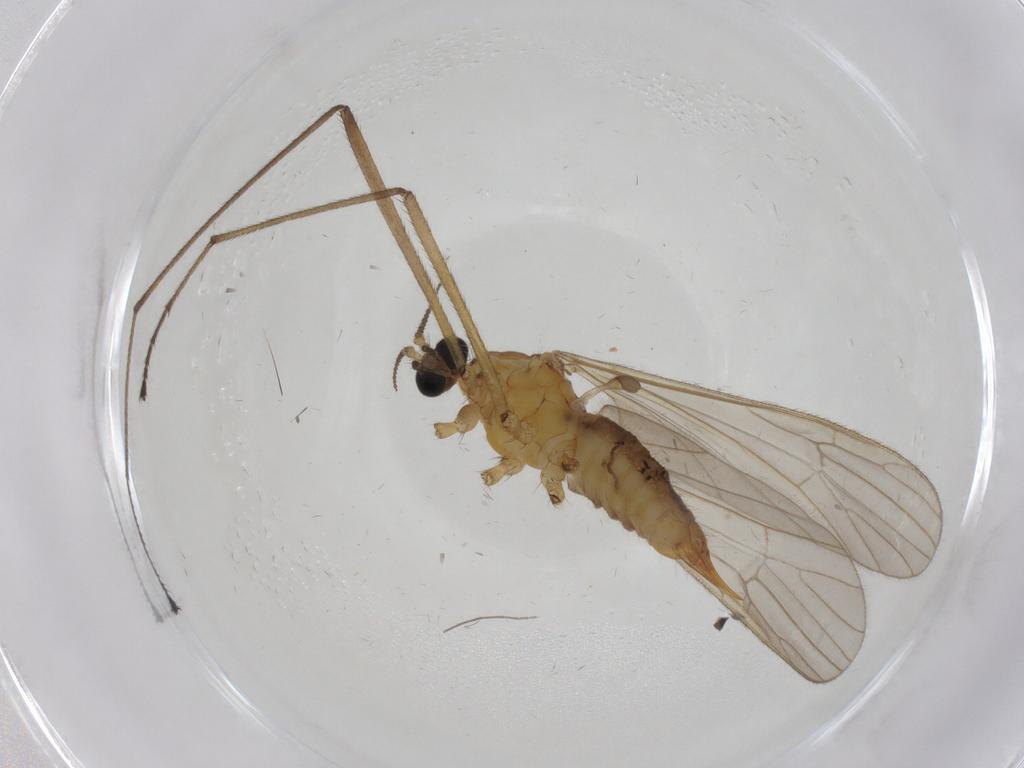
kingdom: Animalia
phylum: Arthropoda
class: Insecta
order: Diptera
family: Limoniidae
